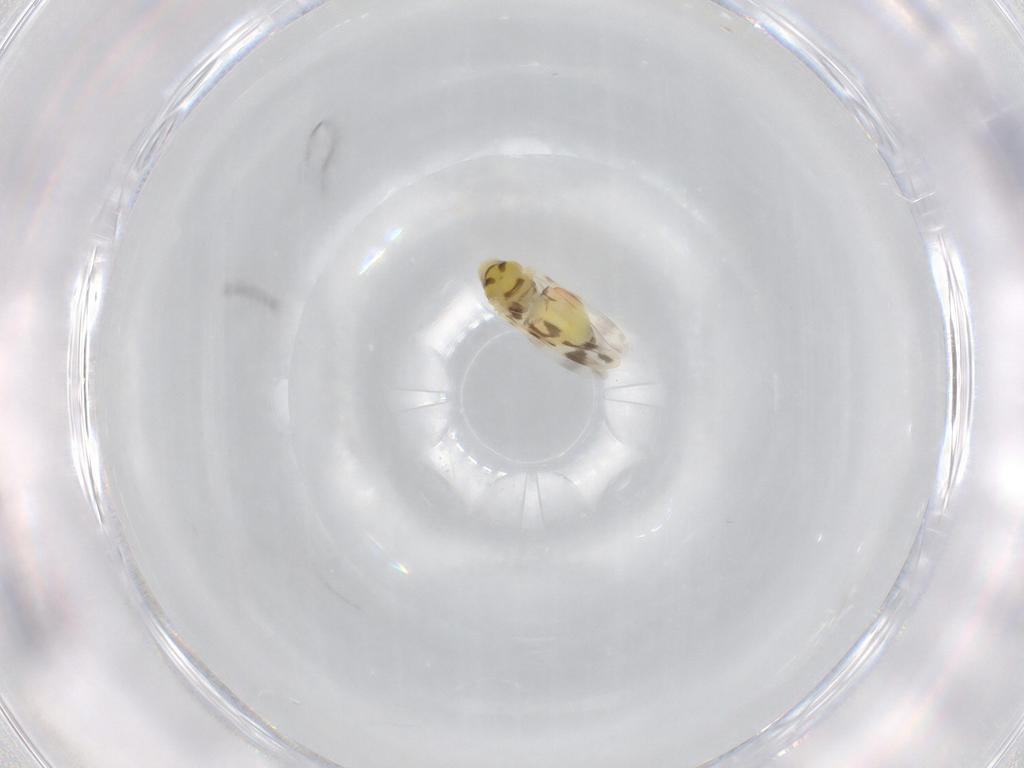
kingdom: Animalia
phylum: Arthropoda
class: Insecta
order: Hemiptera
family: Aleyrodidae
